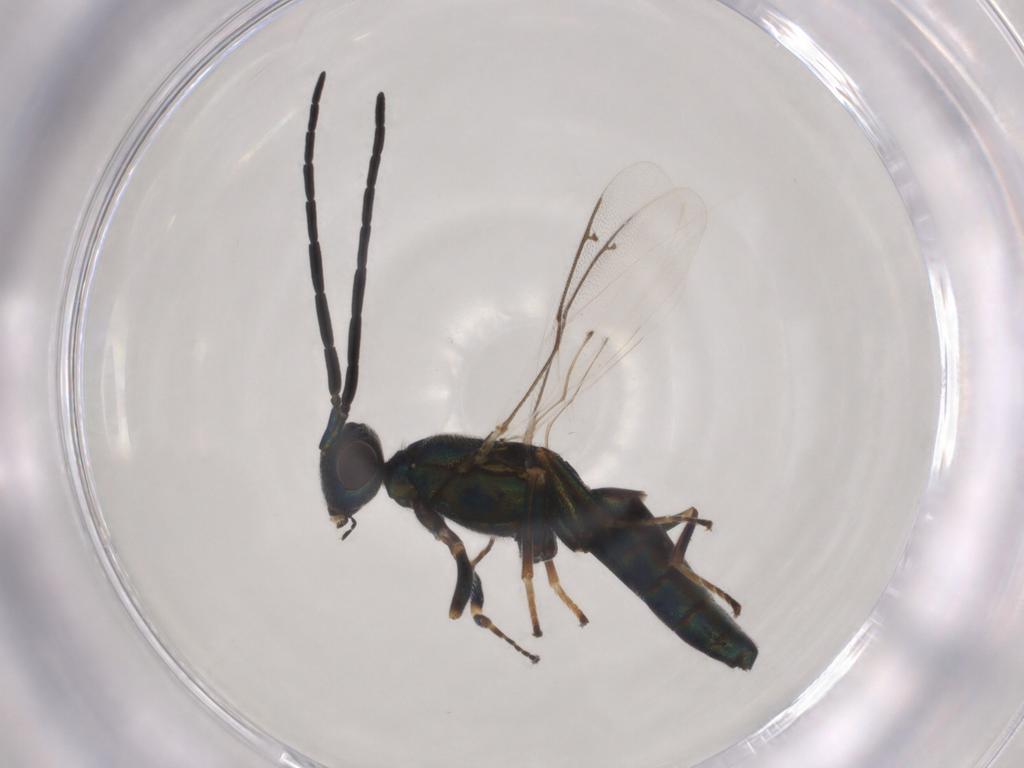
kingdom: Animalia
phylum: Arthropoda
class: Insecta
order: Hymenoptera
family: Eupelmidae
